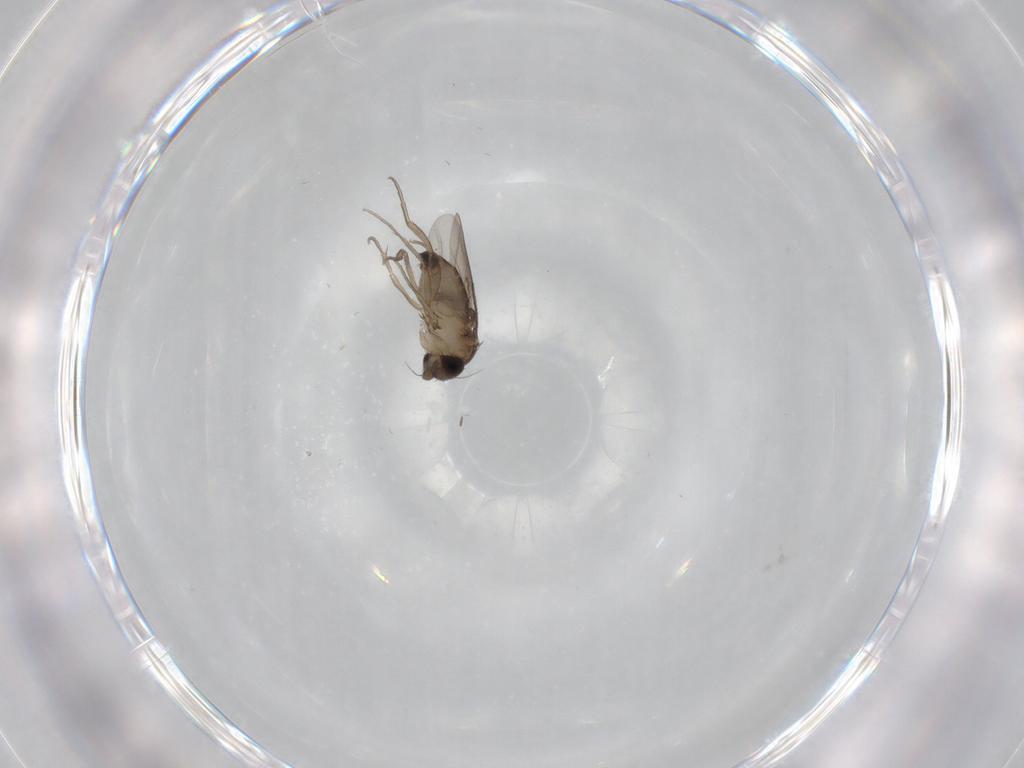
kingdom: Animalia
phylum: Arthropoda
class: Insecta
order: Diptera
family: Phoridae
